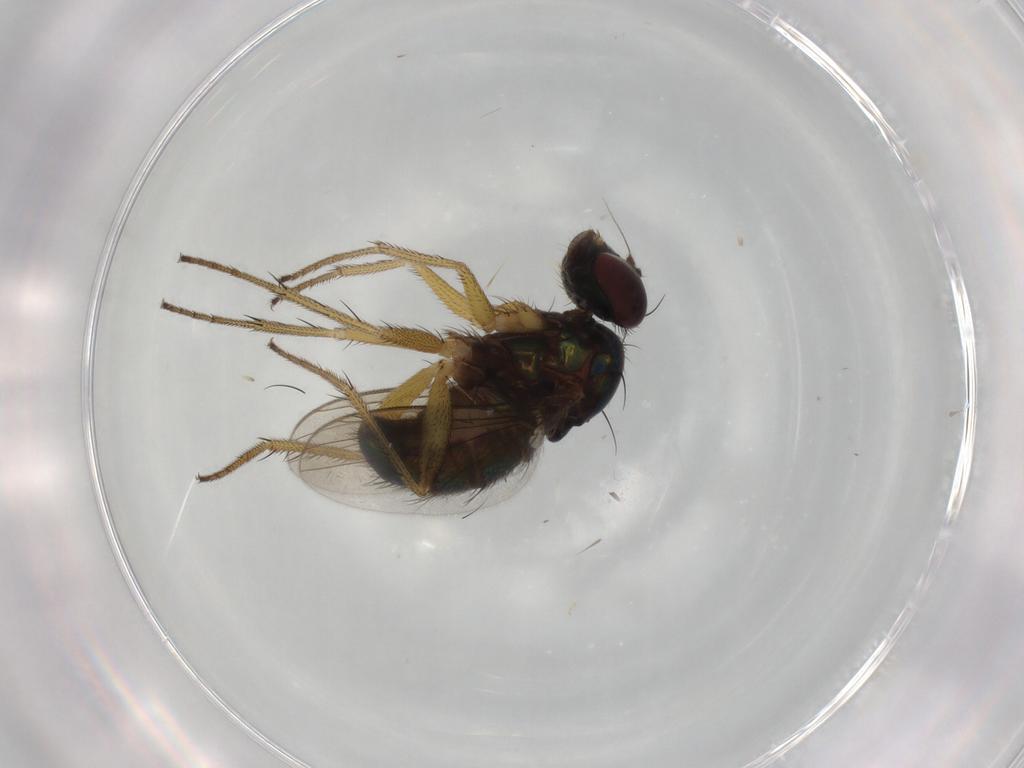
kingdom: Animalia
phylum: Arthropoda
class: Insecta
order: Diptera
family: Dolichopodidae
